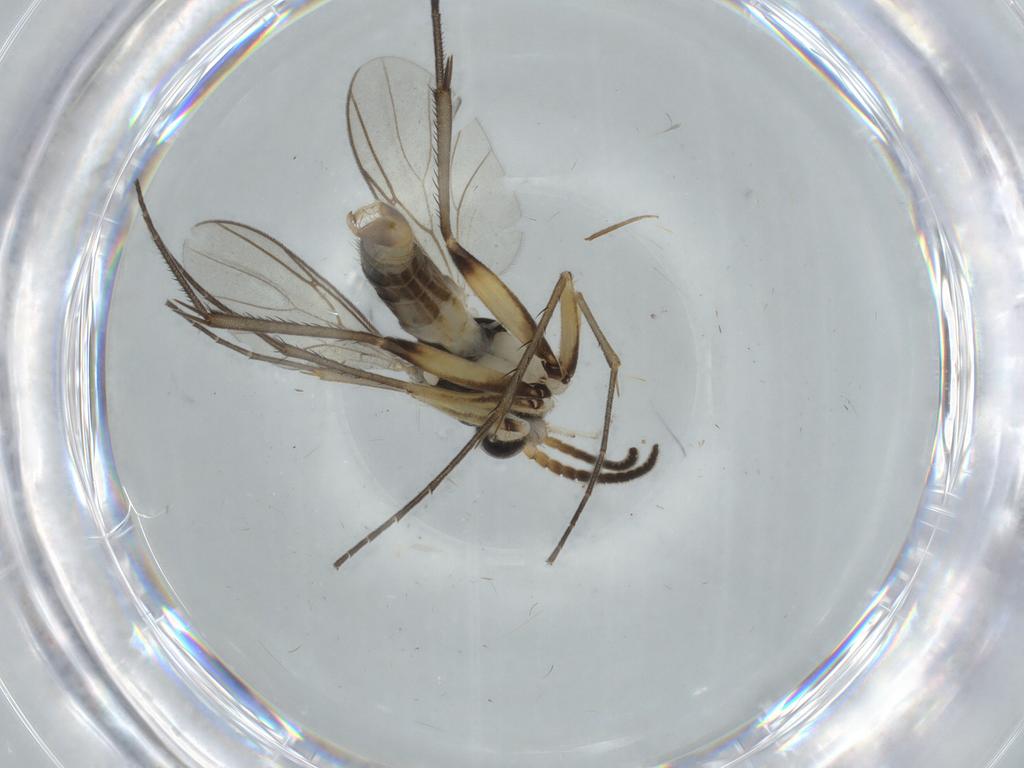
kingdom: Animalia
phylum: Arthropoda
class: Insecta
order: Diptera
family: Phoridae
